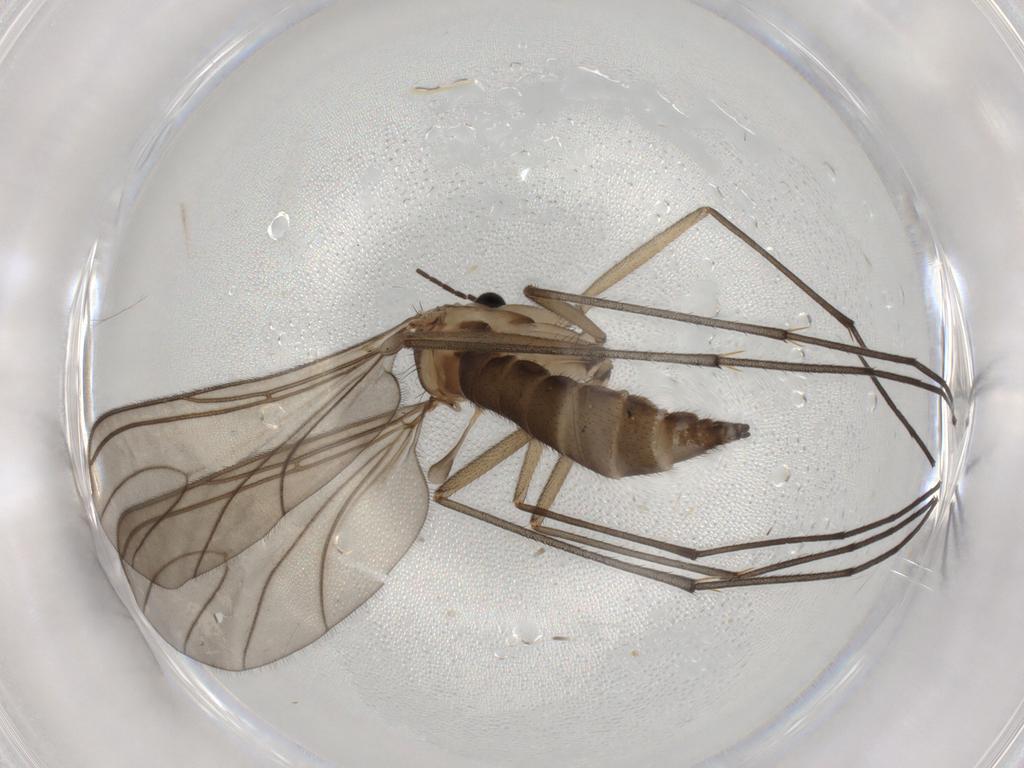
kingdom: Animalia
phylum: Arthropoda
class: Insecta
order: Diptera
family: Sciaridae
